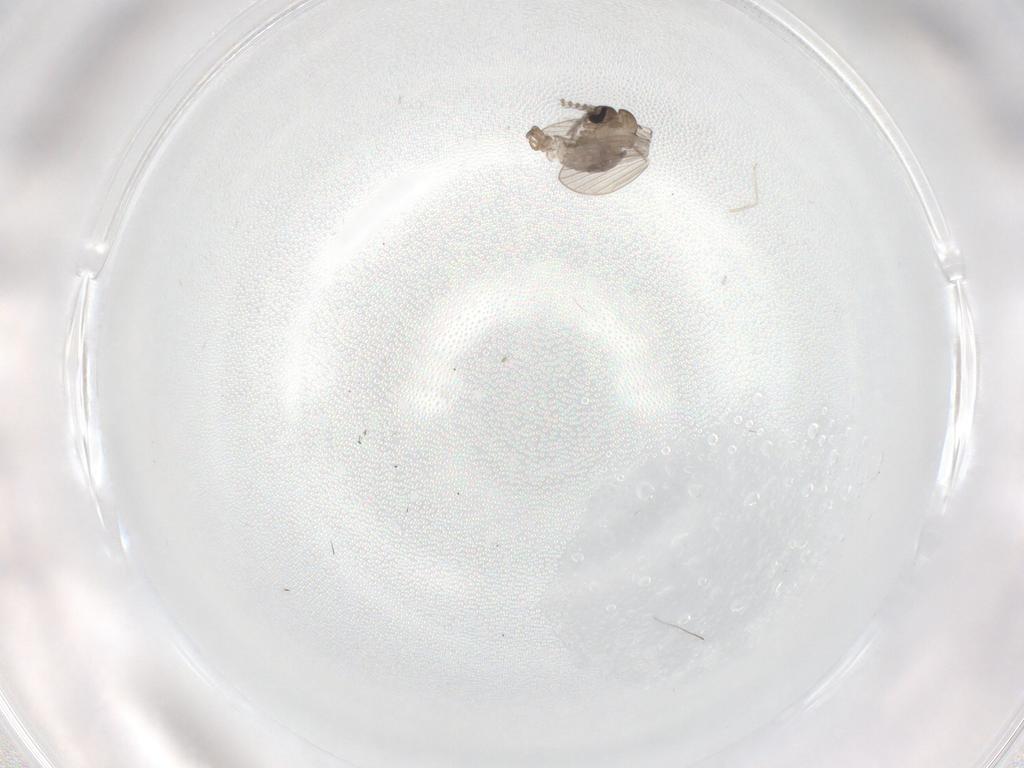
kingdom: Animalia
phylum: Arthropoda
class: Insecta
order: Diptera
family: Psychodidae
